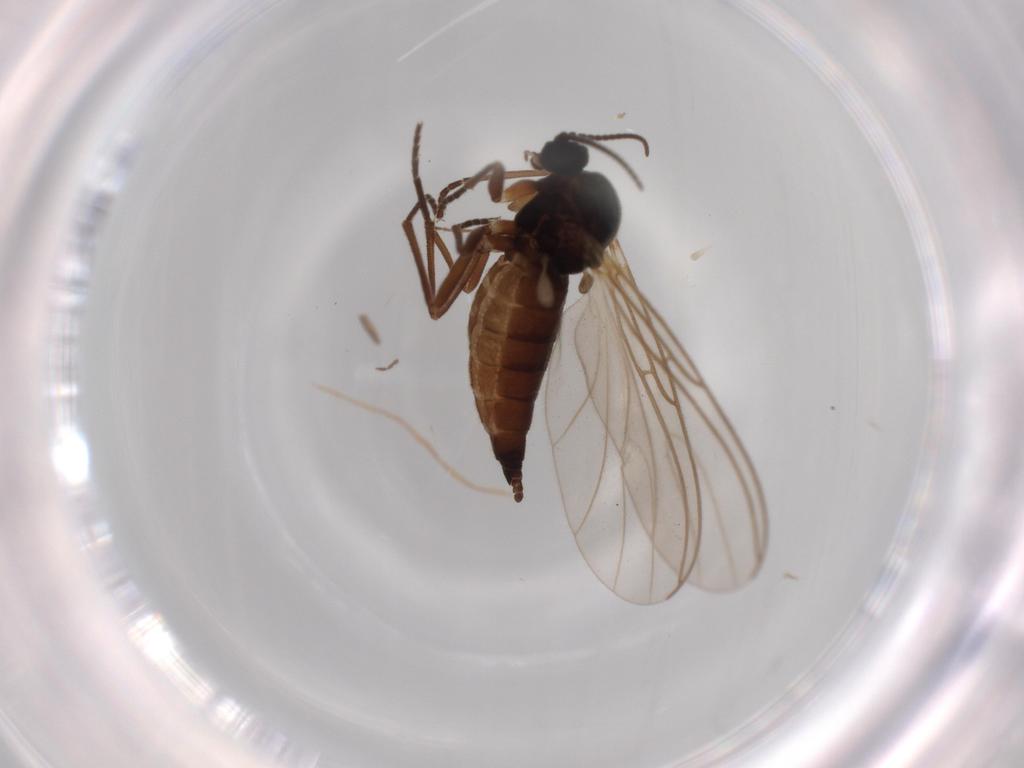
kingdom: Animalia
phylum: Arthropoda
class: Insecta
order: Diptera
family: Sciaridae
